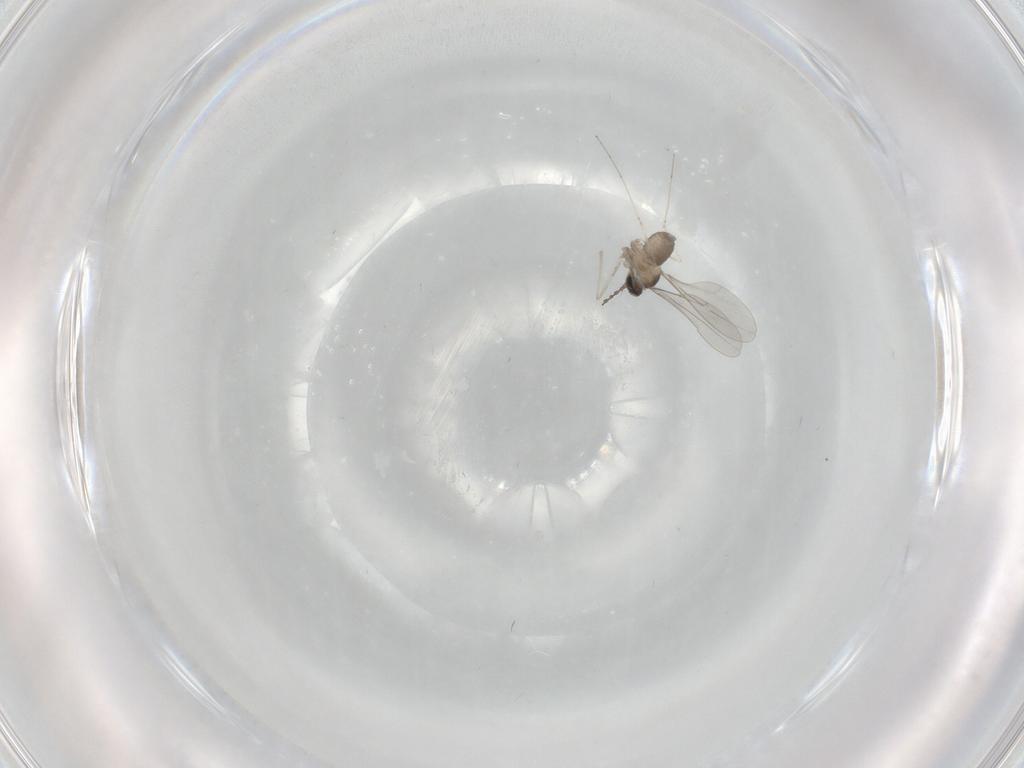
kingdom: Animalia
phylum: Arthropoda
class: Insecta
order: Diptera
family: Cecidomyiidae
